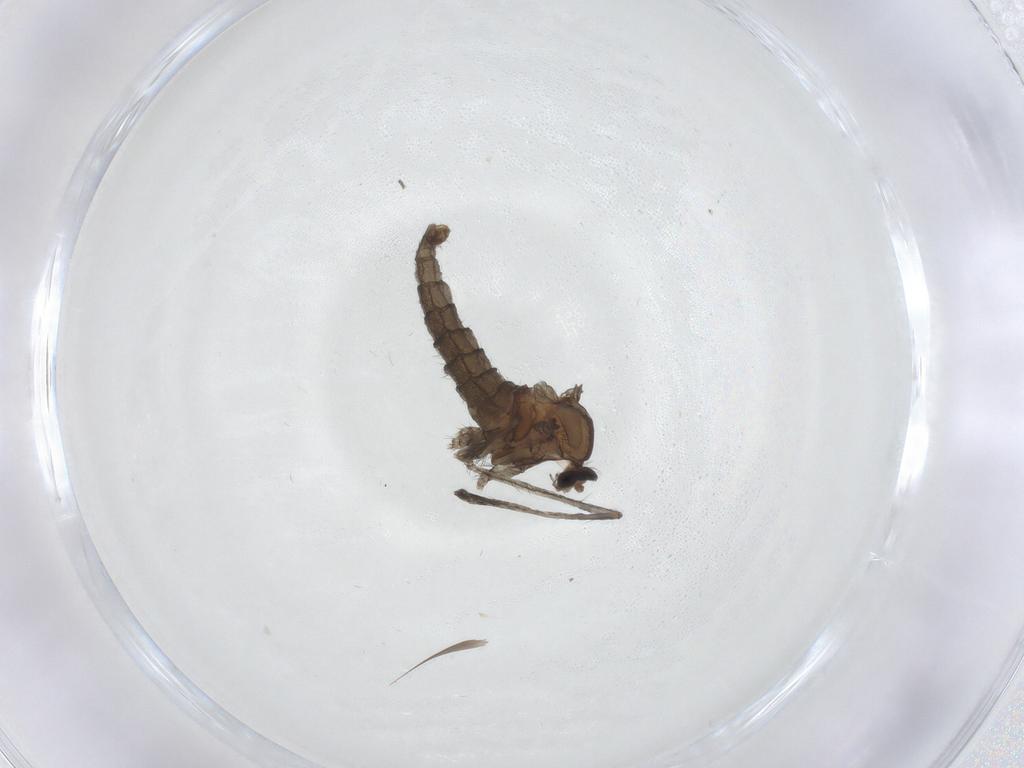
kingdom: Animalia
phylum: Arthropoda
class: Insecta
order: Diptera
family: Cecidomyiidae
